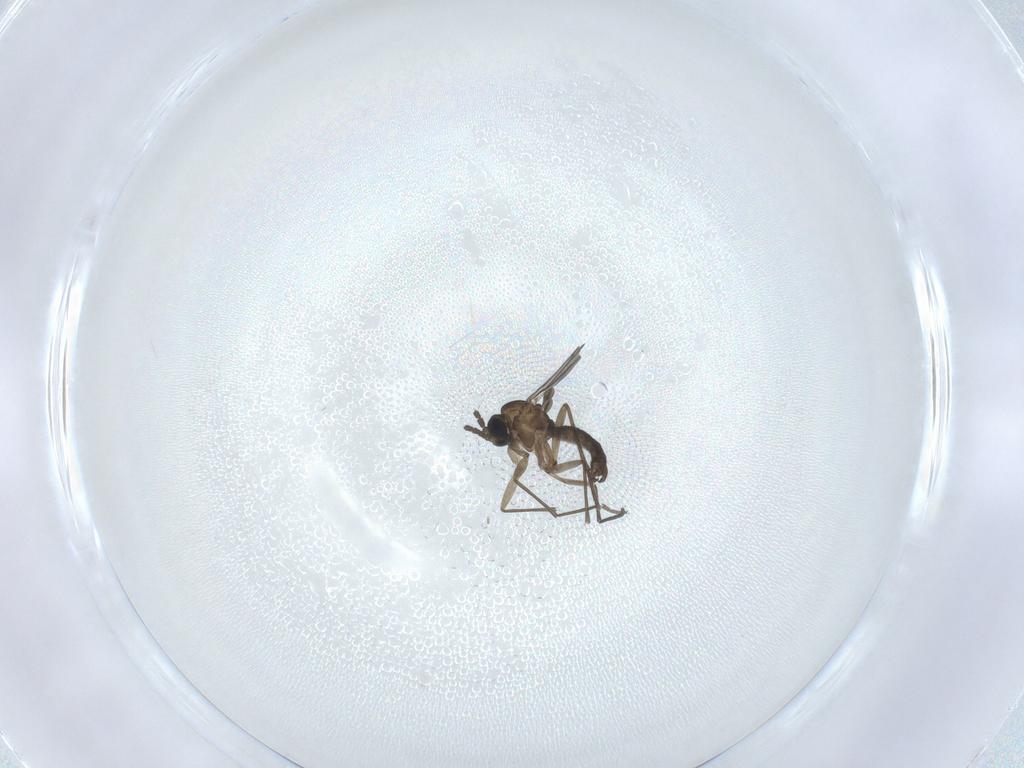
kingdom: Animalia
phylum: Arthropoda
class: Insecta
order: Diptera
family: Sciaridae
